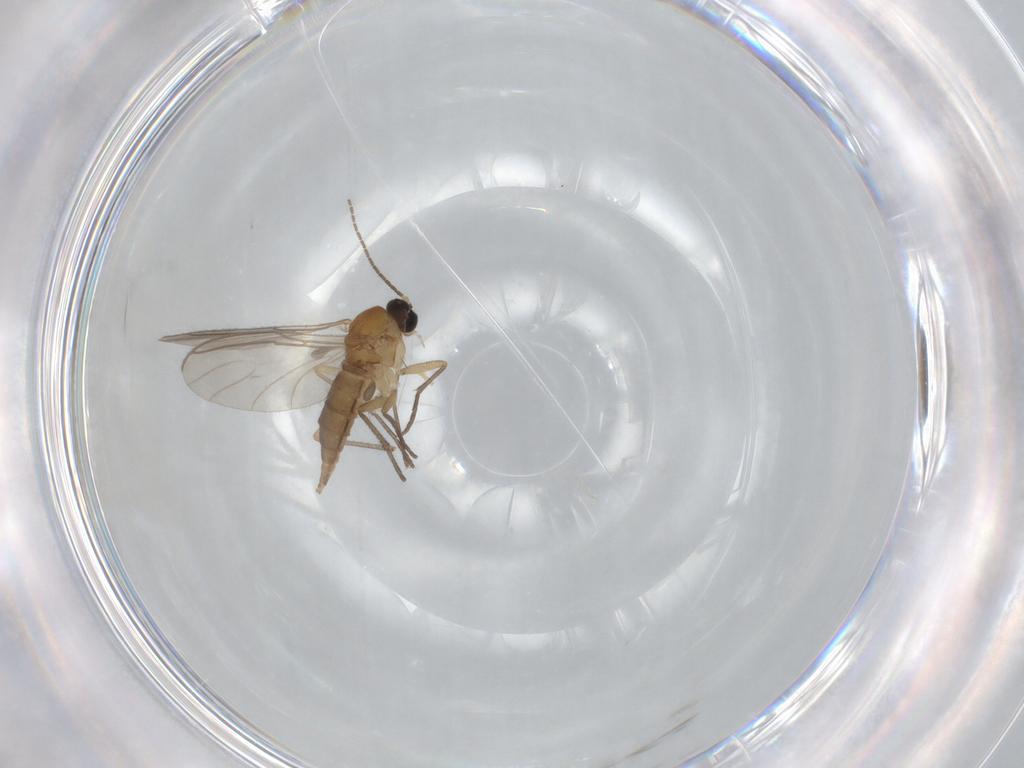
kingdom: Animalia
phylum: Arthropoda
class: Insecta
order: Diptera
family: Sciaridae
